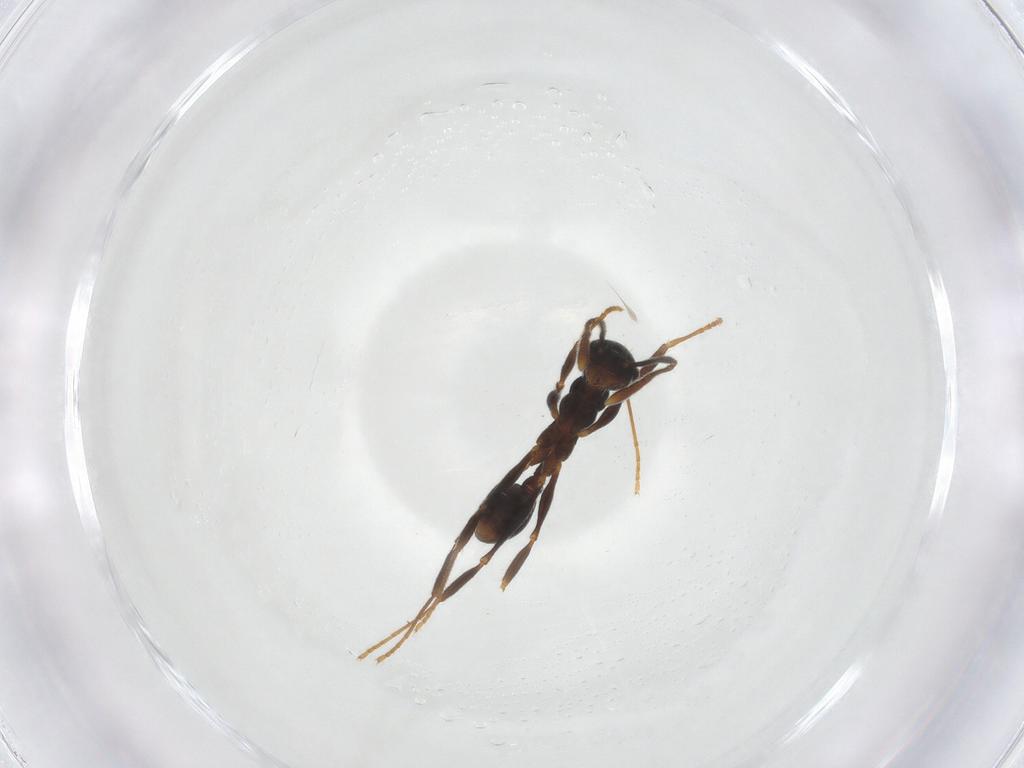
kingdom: Animalia
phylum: Arthropoda
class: Insecta
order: Hymenoptera
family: Formicidae
